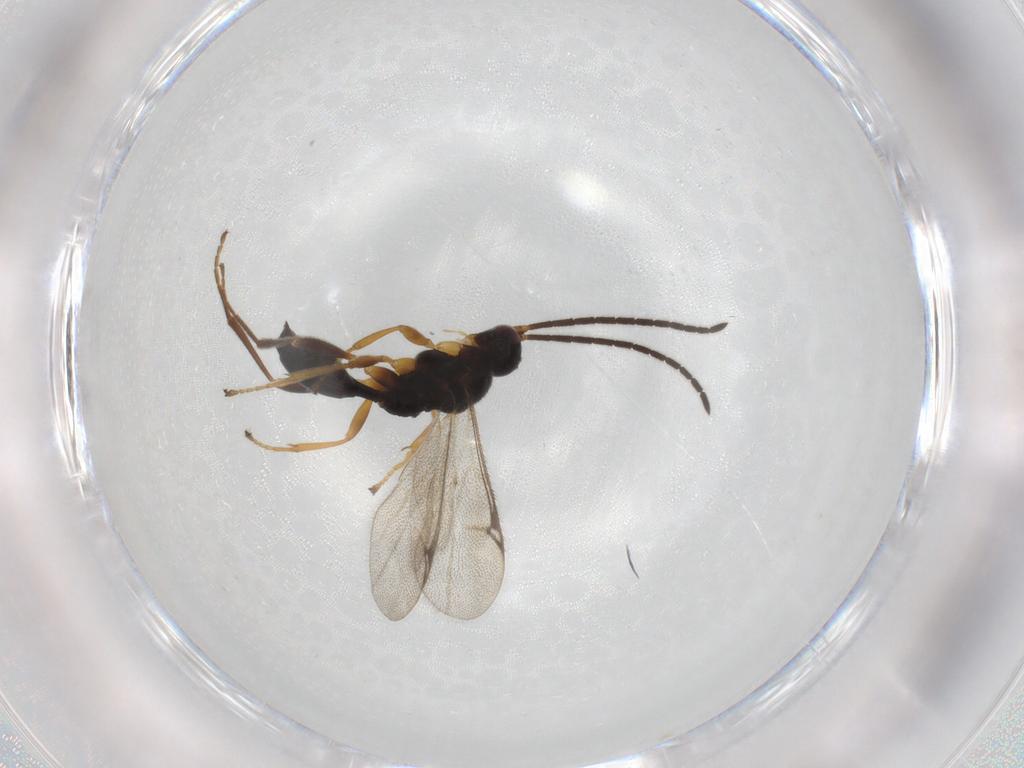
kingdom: Animalia
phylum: Arthropoda
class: Insecta
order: Hymenoptera
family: Proctotrupidae
